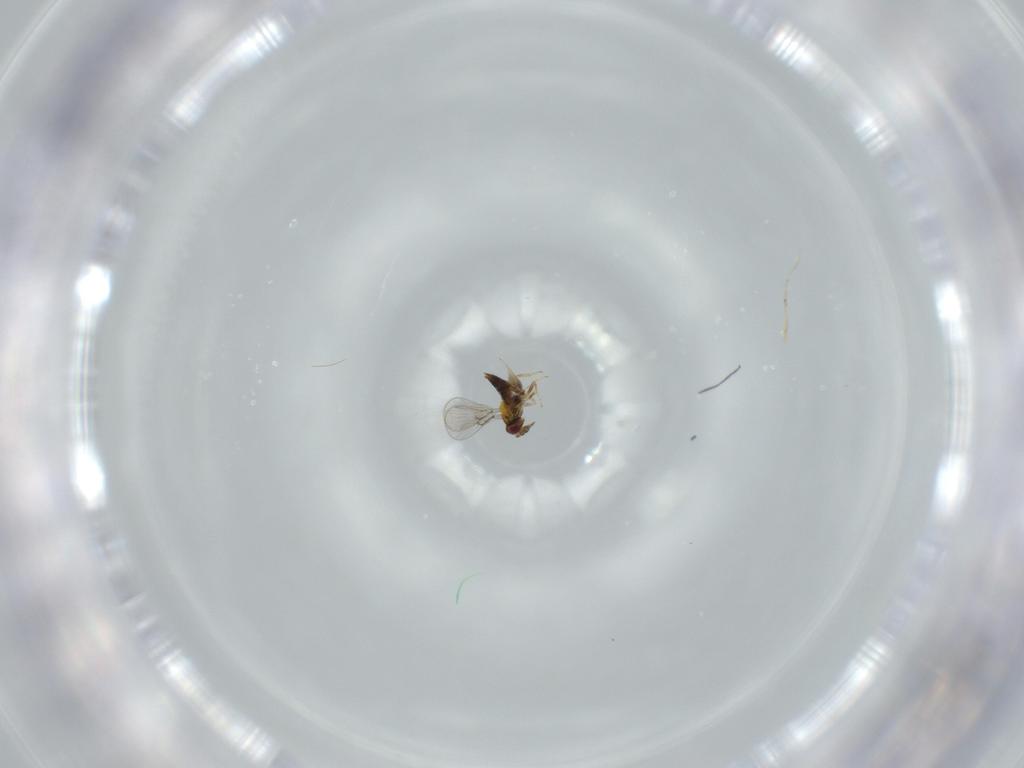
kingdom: Animalia
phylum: Arthropoda
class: Insecta
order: Hymenoptera
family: Trichogrammatidae
